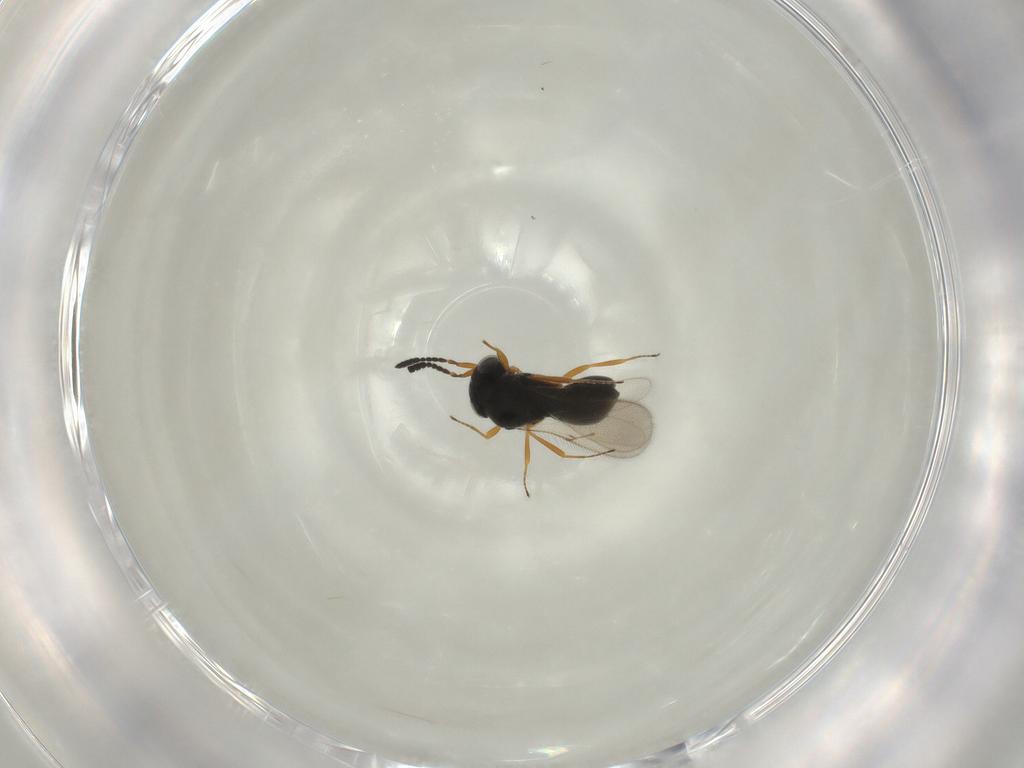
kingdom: Animalia
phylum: Arthropoda
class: Insecta
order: Hymenoptera
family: Scelionidae
